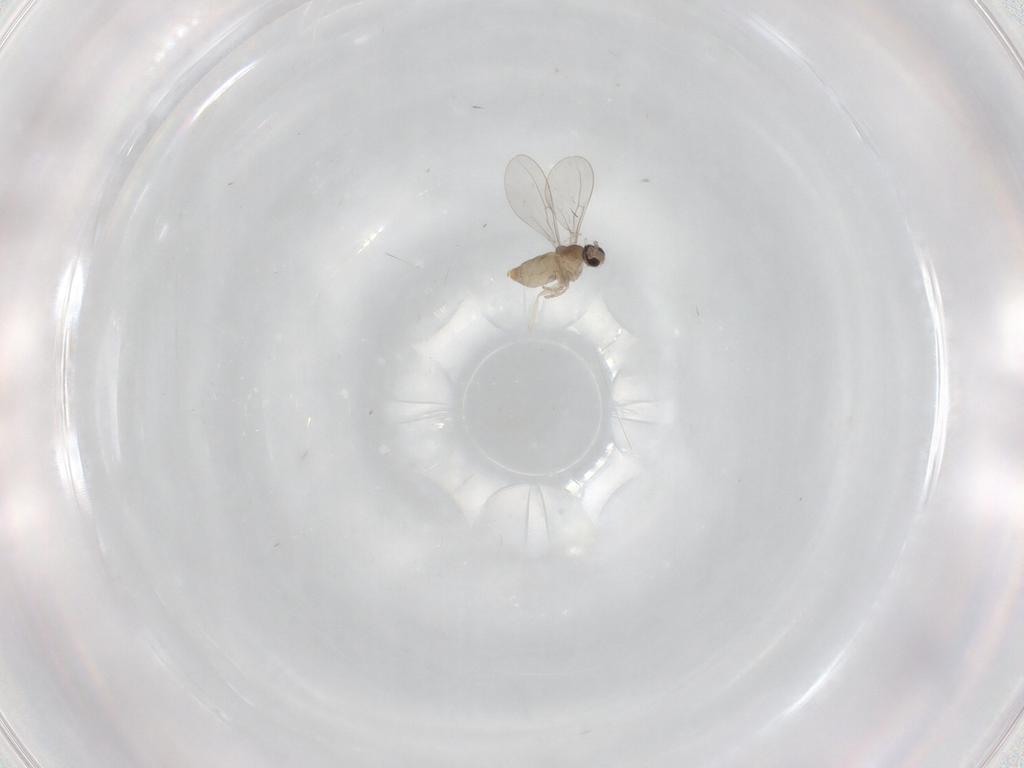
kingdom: Animalia
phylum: Arthropoda
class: Insecta
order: Diptera
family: Cecidomyiidae
